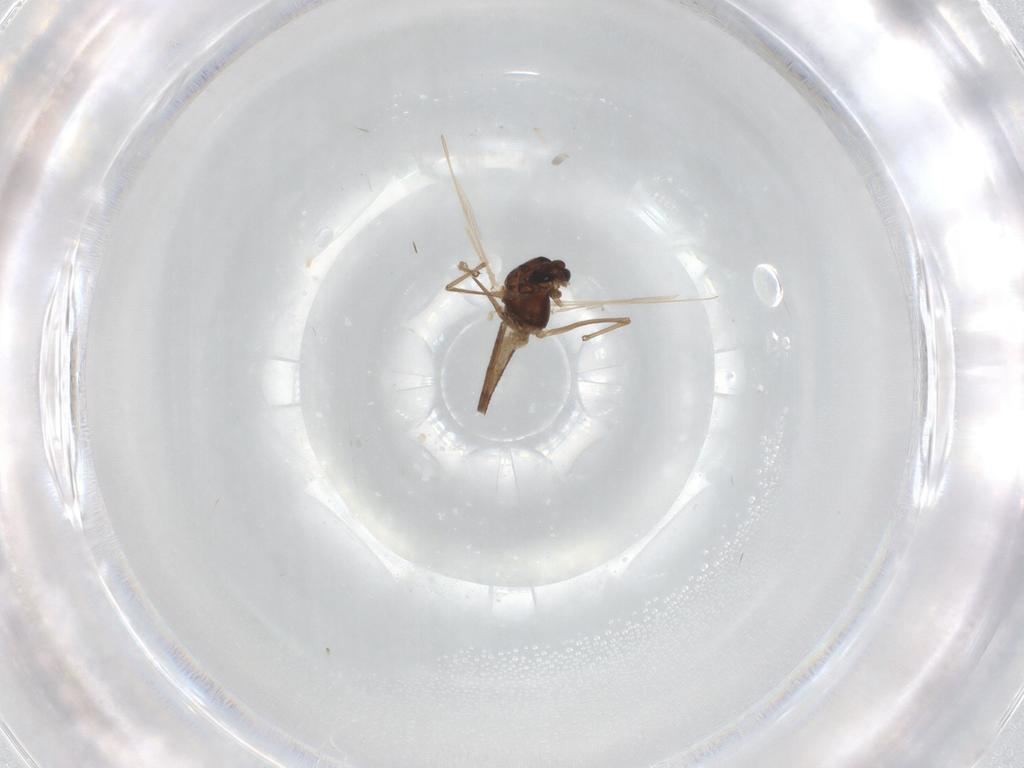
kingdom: Animalia
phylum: Arthropoda
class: Insecta
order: Diptera
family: Chironomidae
